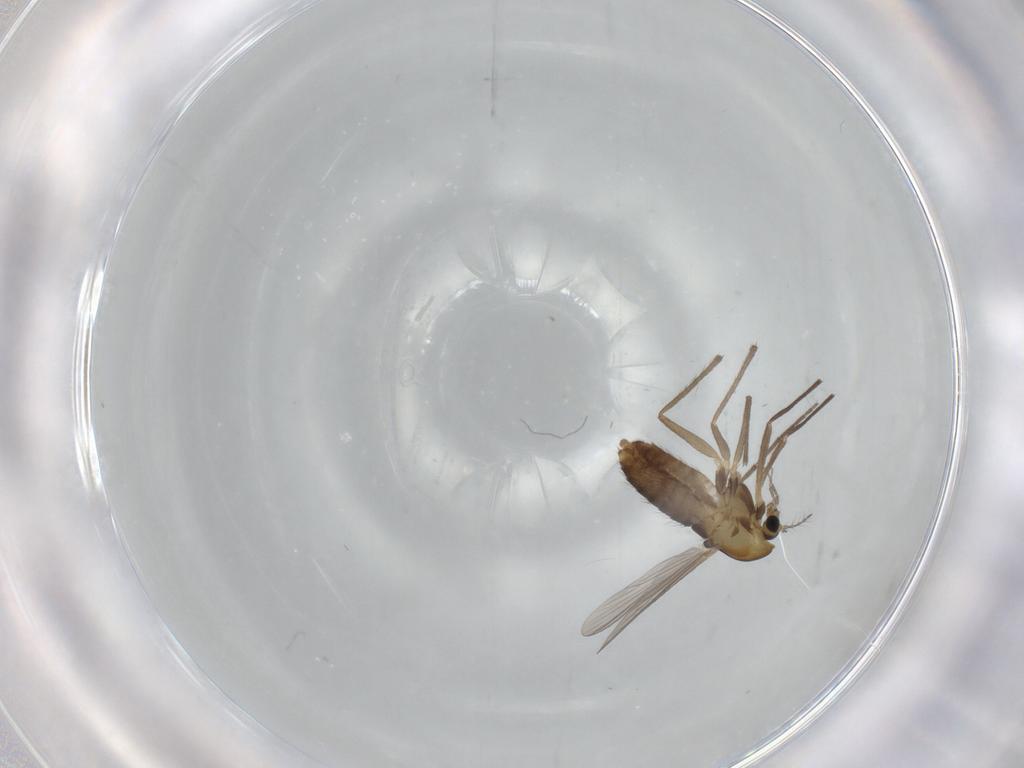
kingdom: Animalia
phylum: Arthropoda
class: Insecta
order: Diptera
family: Chironomidae
